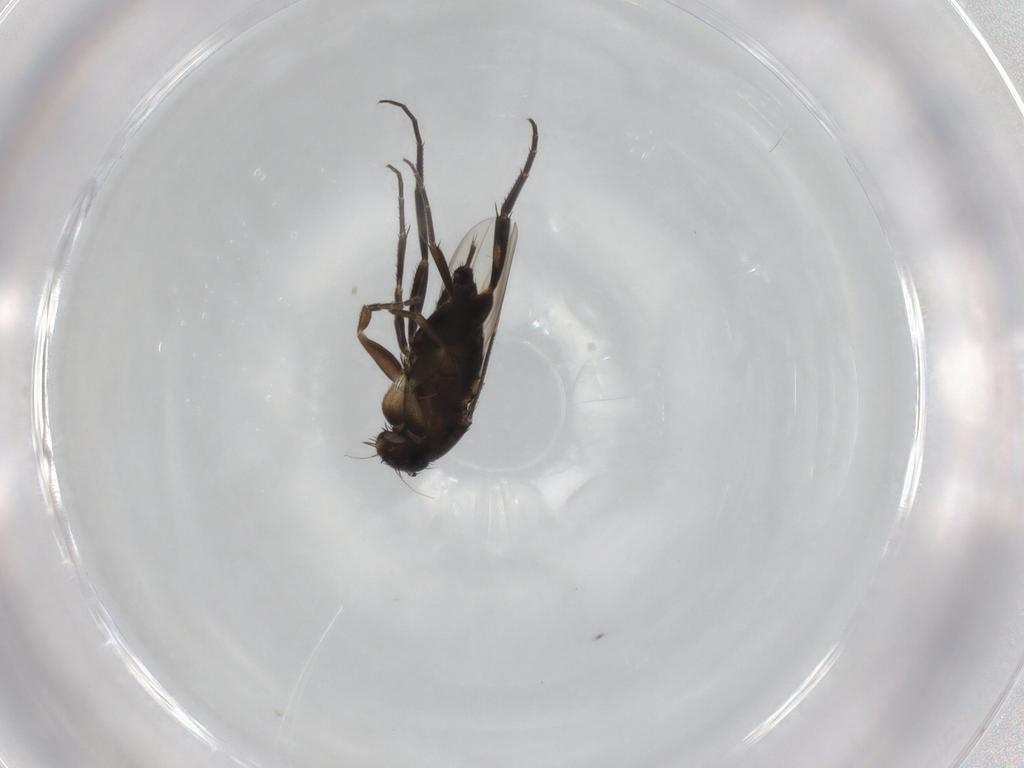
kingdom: Animalia
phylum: Arthropoda
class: Insecta
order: Diptera
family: Phoridae
